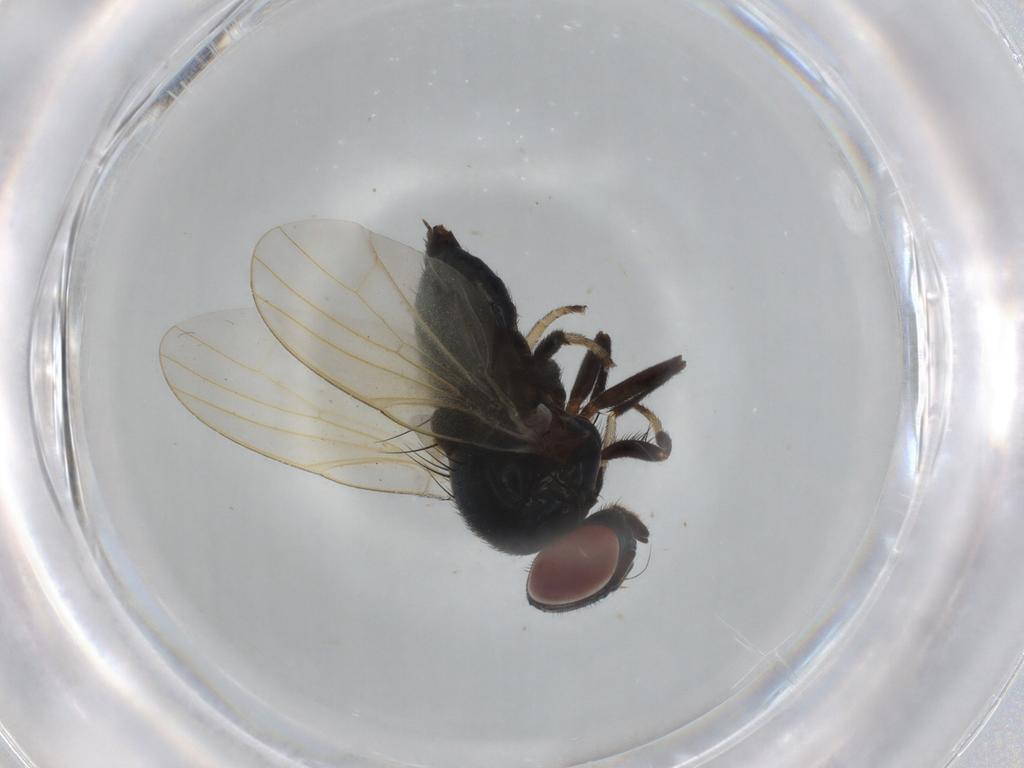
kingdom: Animalia
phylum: Arthropoda
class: Insecta
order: Diptera
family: Lonchaeidae
